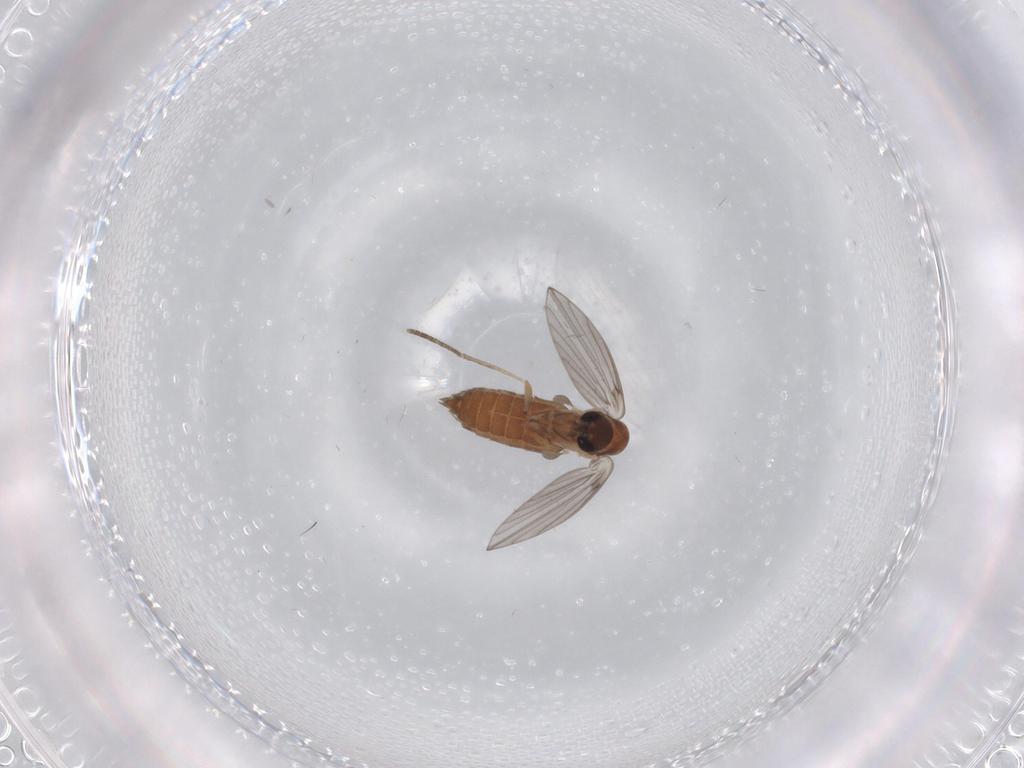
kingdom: Animalia
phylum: Arthropoda
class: Insecta
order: Diptera
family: Psychodidae
